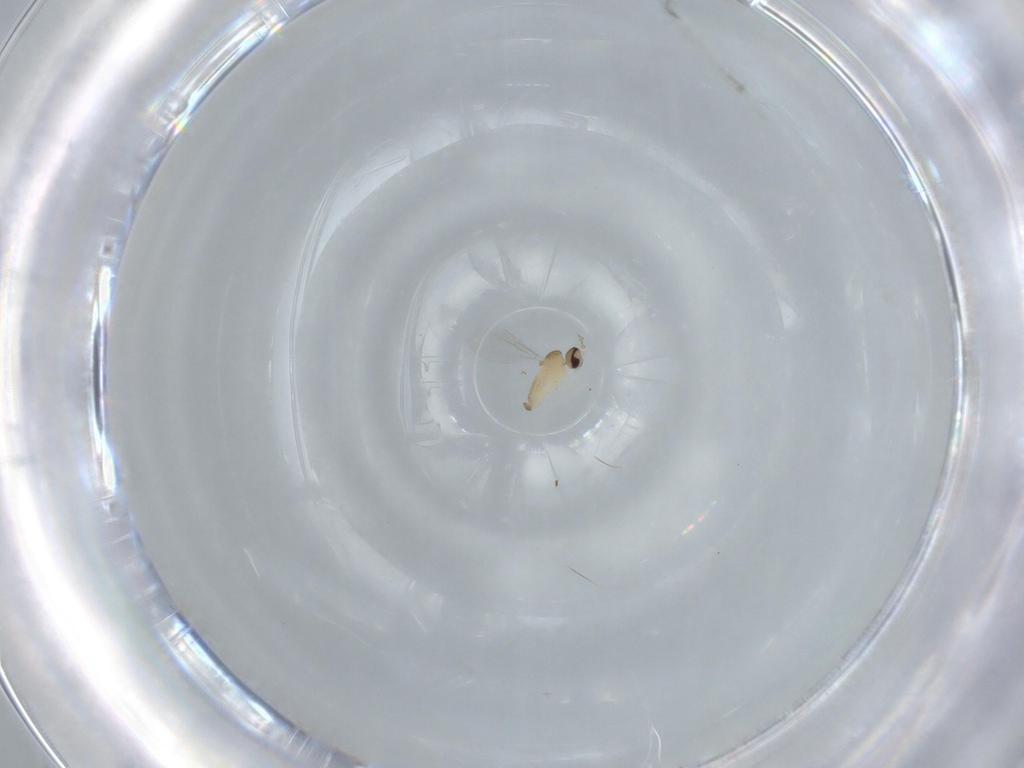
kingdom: Animalia
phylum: Arthropoda
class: Insecta
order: Diptera
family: Cecidomyiidae
